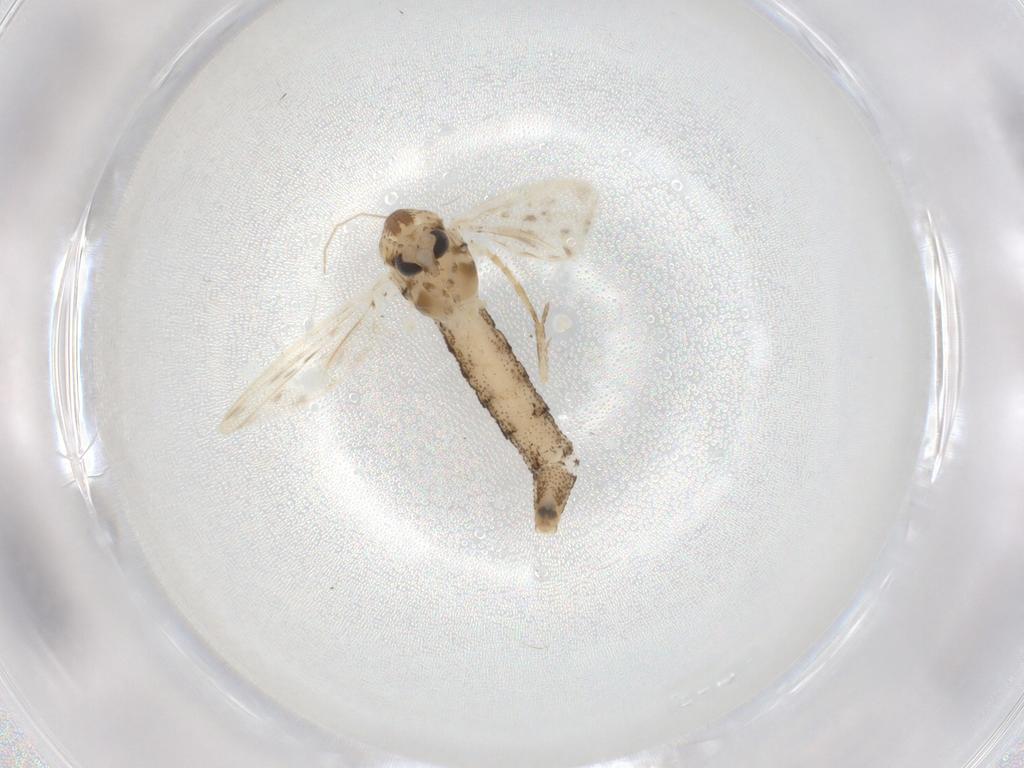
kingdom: Animalia
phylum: Arthropoda
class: Insecta
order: Diptera
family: Chaoboridae
